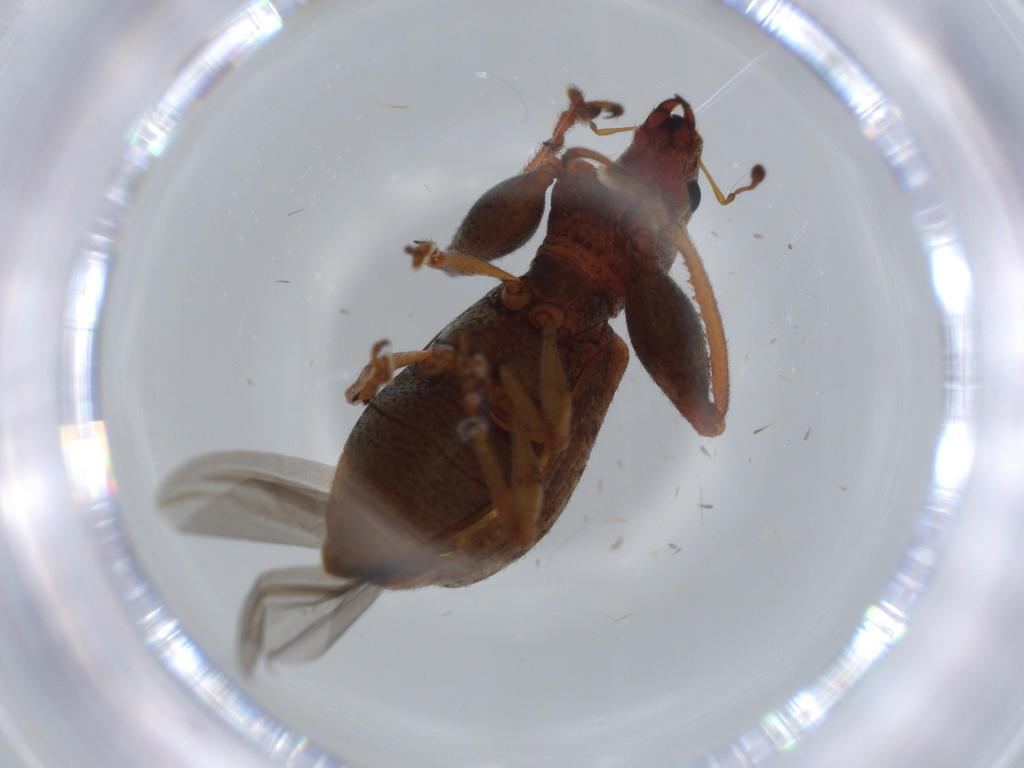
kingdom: Animalia
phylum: Arthropoda
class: Insecta
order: Coleoptera
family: Curculionidae
